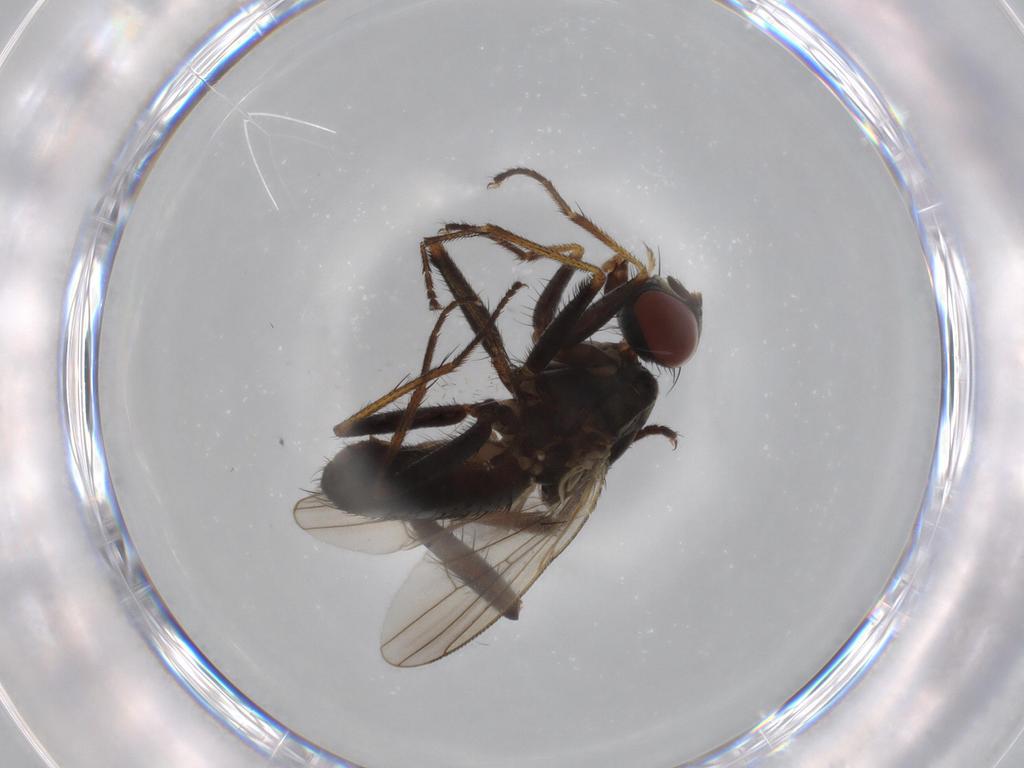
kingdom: Animalia
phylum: Arthropoda
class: Insecta
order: Diptera
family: Muscidae
